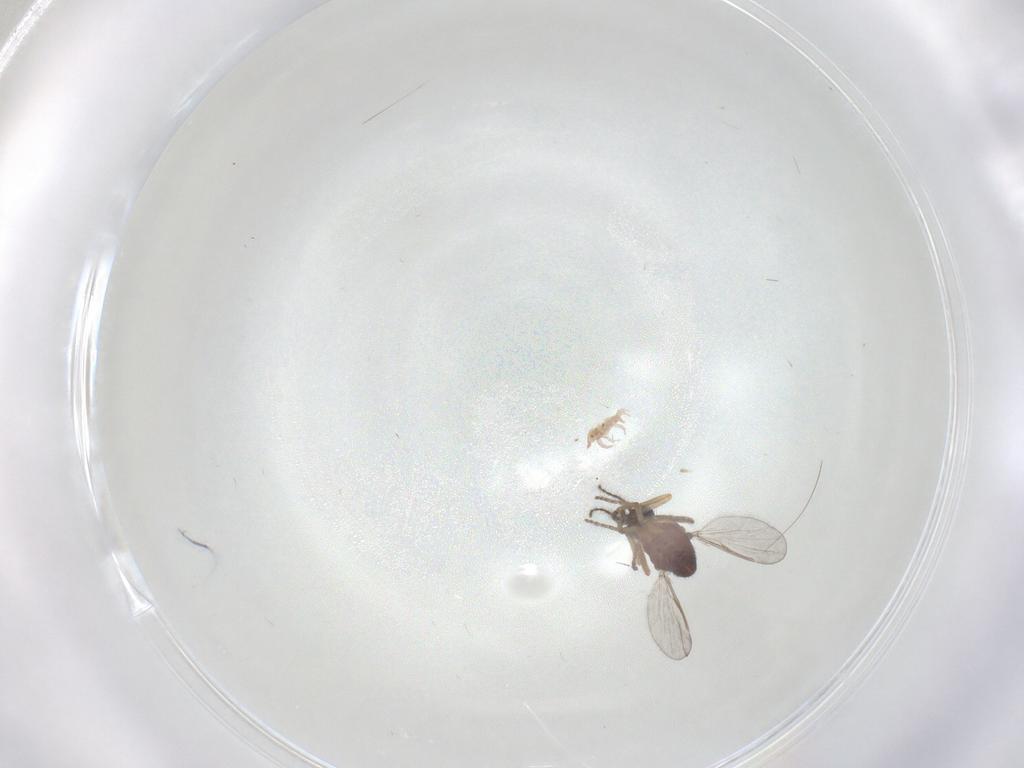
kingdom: Animalia
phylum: Arthropoda
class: Insecta
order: Diptera
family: Ceratopogonidae
